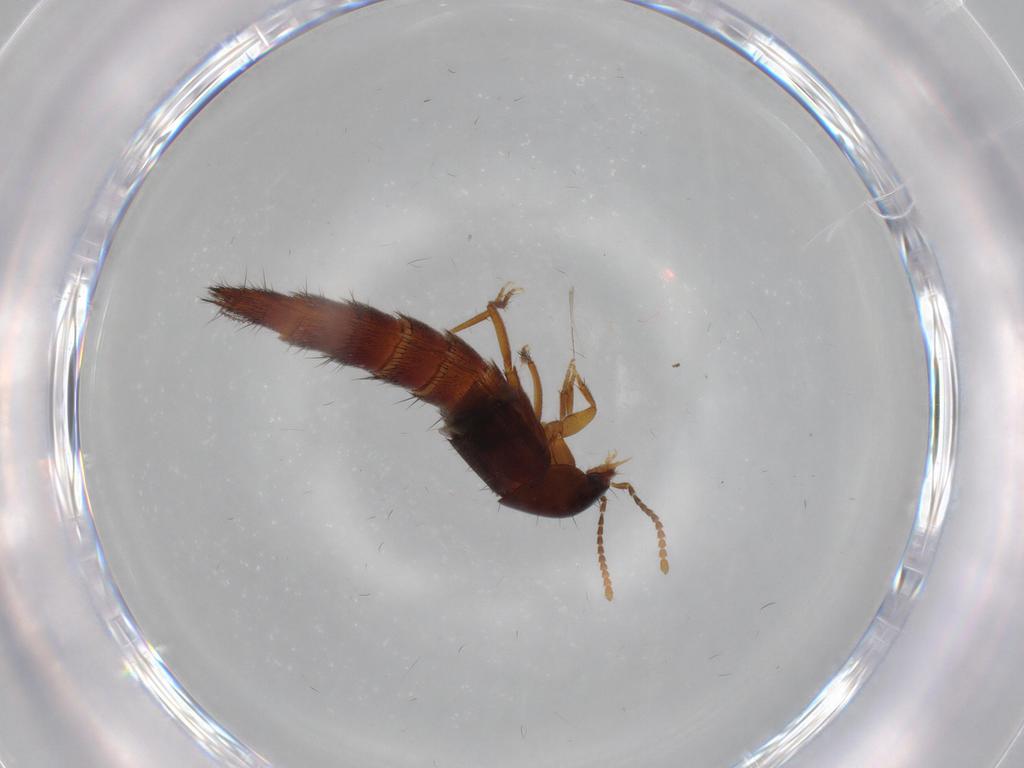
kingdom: Animalia
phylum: Arthropoda
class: Insecta
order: Coleoptera
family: Staphylinidae
